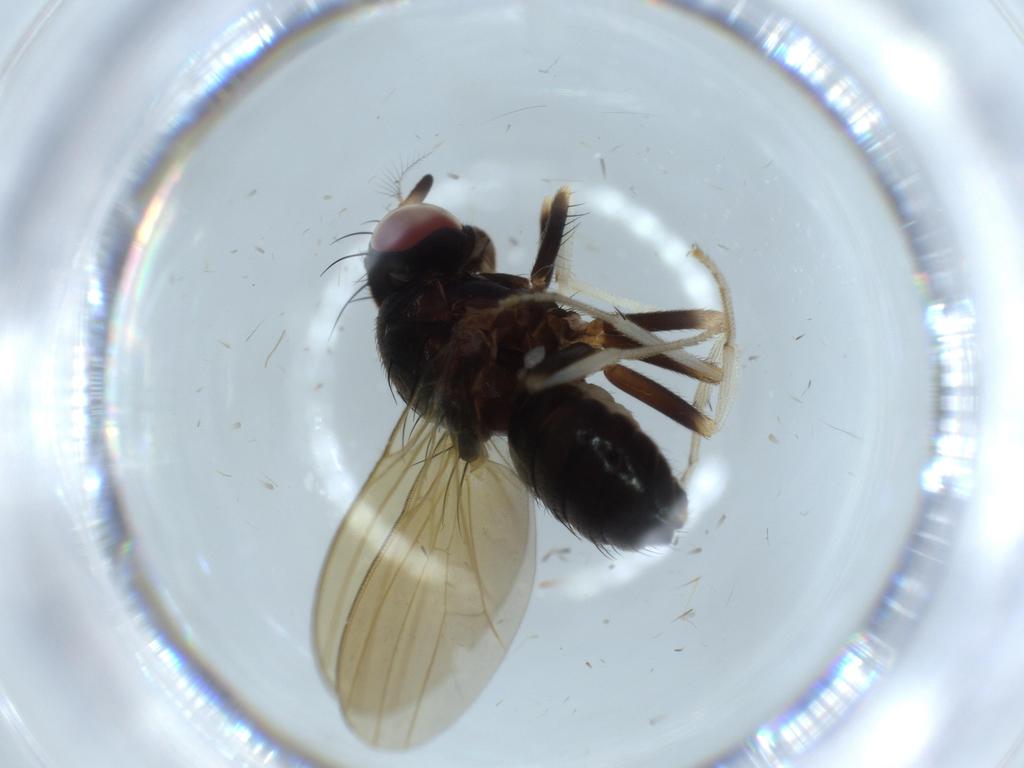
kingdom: Animalia
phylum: Arthropoda
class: Insecta
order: Diptera
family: Lauxaniidae
